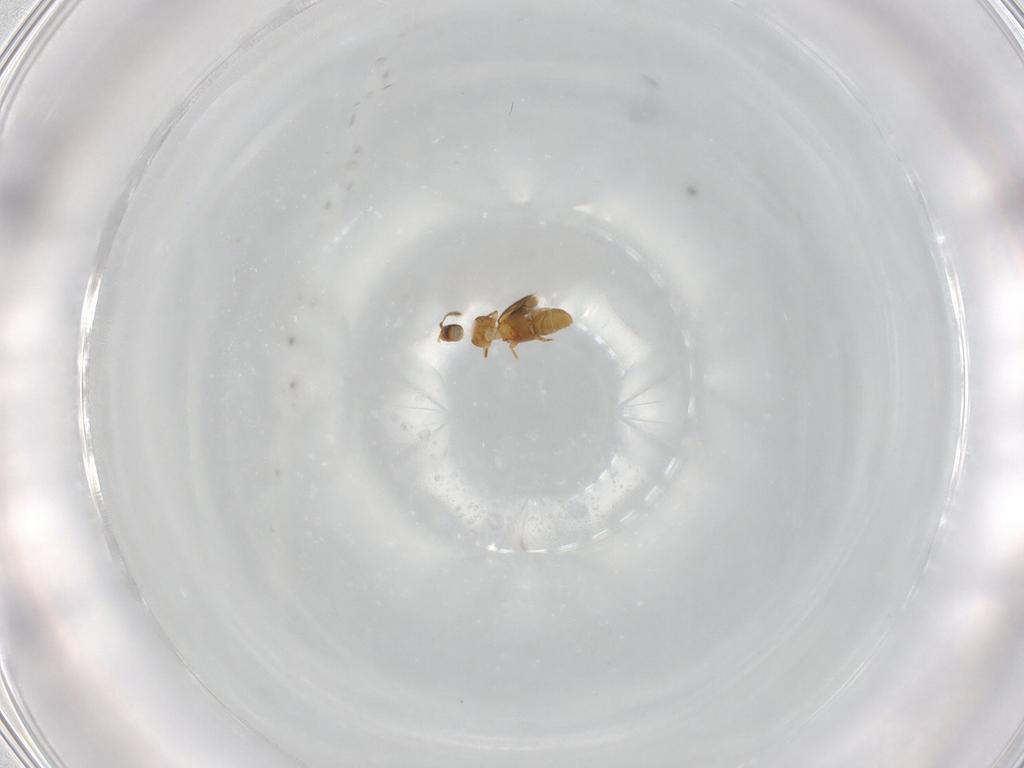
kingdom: Animalia
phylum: Arthropoda
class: Insecta
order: Coleoptera
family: Ptiliidae
